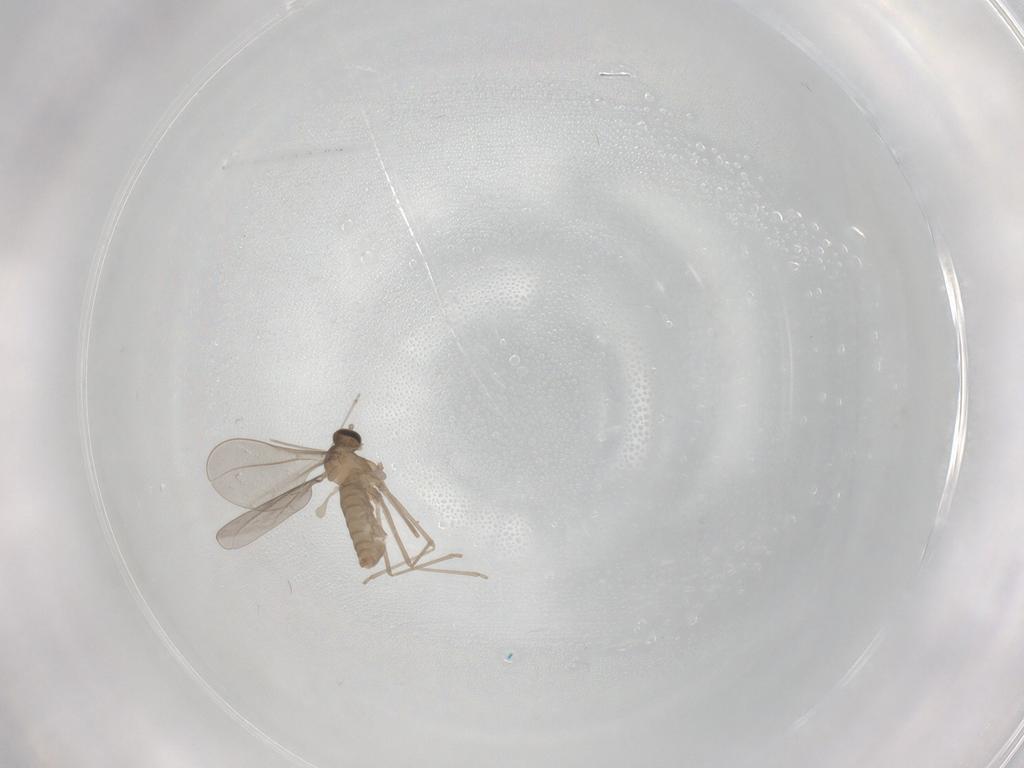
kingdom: Animalia
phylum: Arthropoda
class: Insecta
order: Diptera
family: Cecidomyiidae
